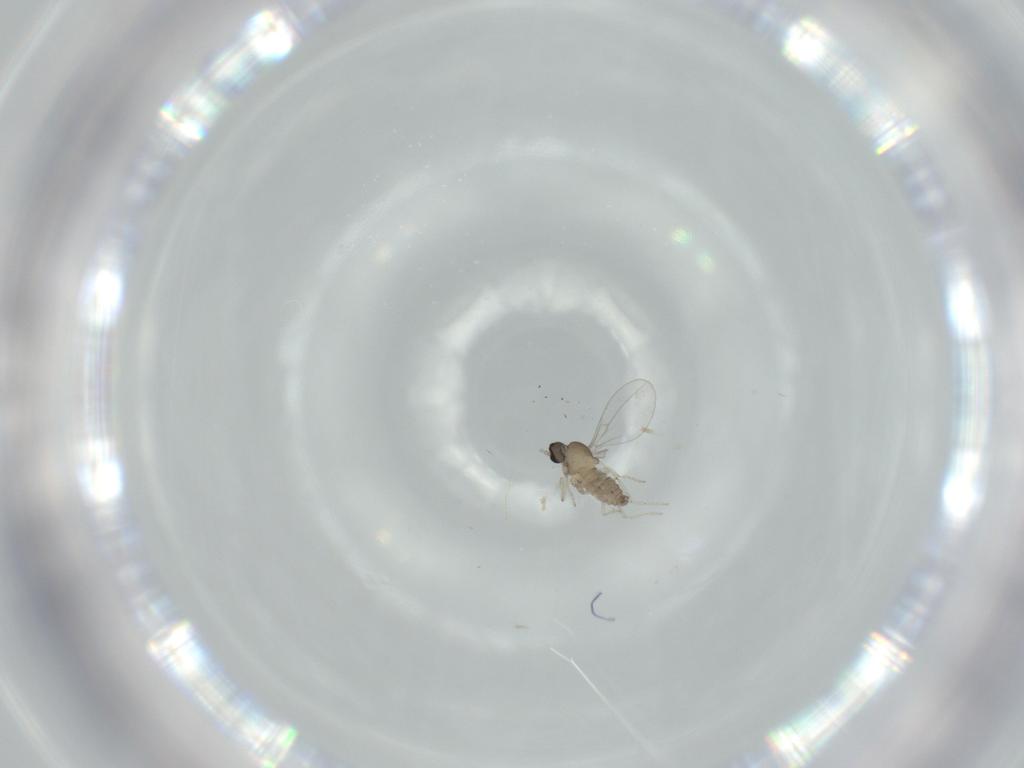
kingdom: Animalia
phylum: Arthropoda
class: Insecta
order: Diptera
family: Cecidomyiidae
